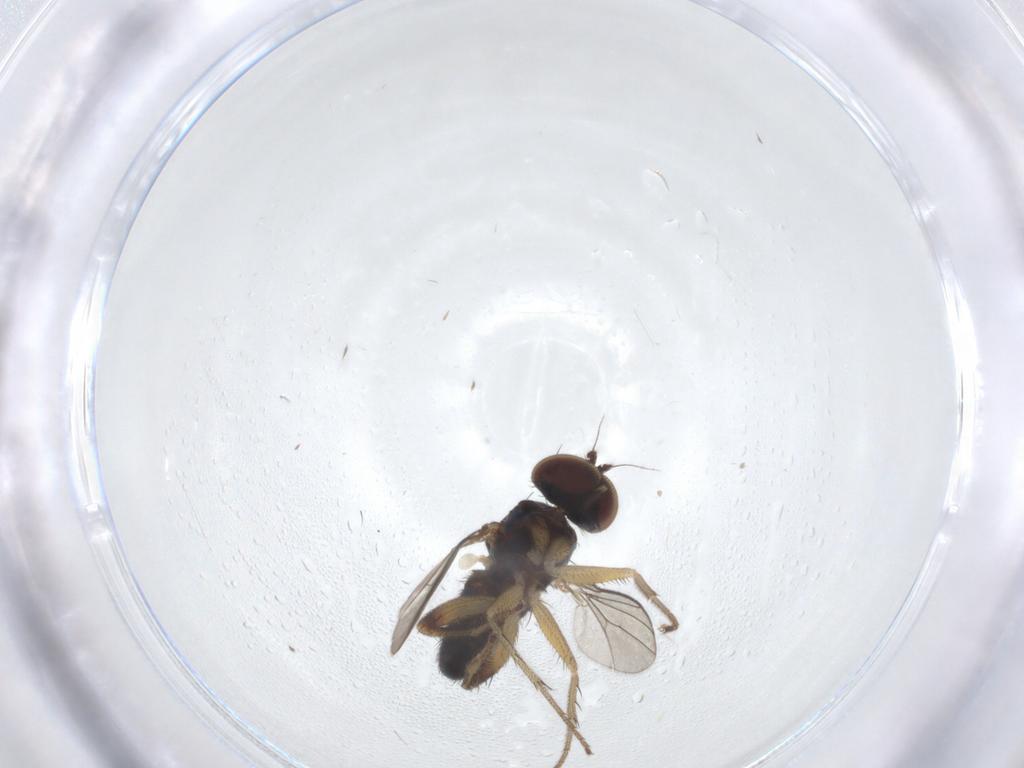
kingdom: Animalia
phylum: Arthropoda
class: Insecta
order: Diptera
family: Dolichopodidae
